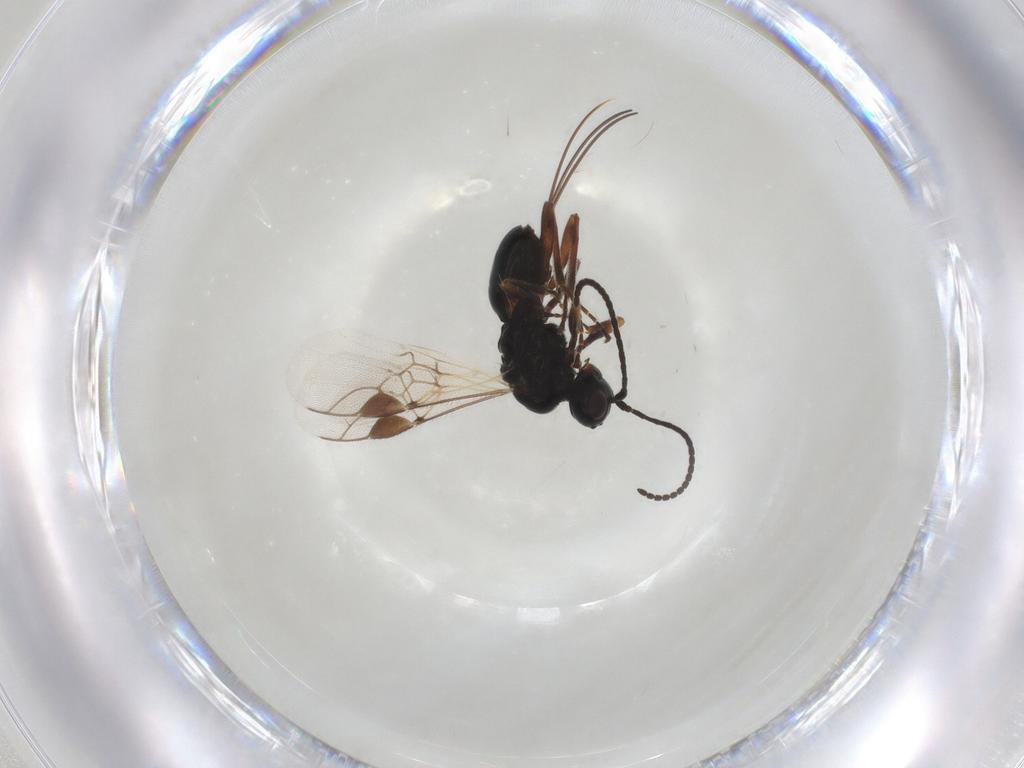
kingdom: Animalia
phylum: Arthropoda
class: Insecta
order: Hymenoptera
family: Braconidae
